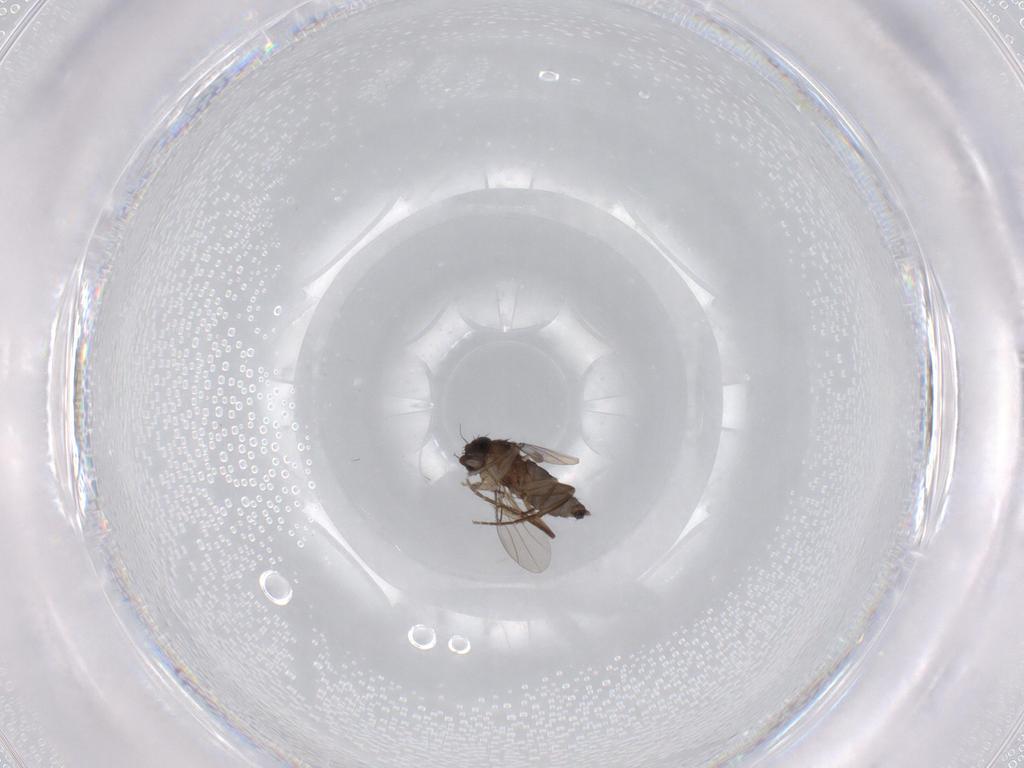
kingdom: Animalia
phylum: Arthropoda
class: Insecta
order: Diptera
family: Phoridae
